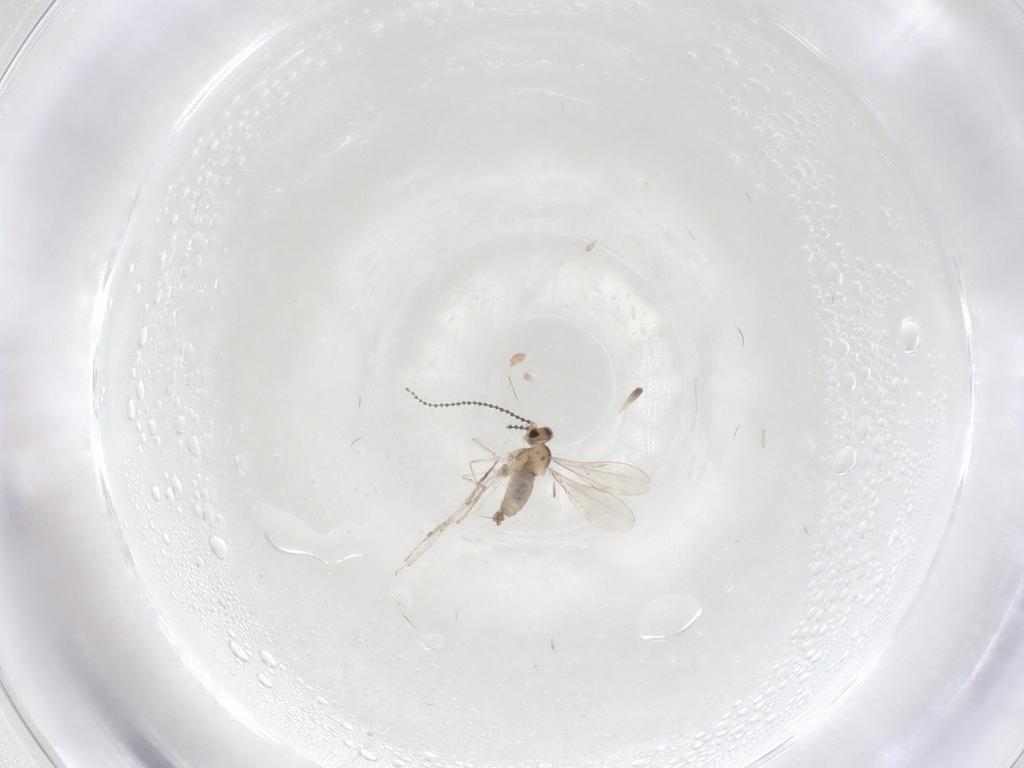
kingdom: Animalia
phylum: Arthropoda
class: Insecta
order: Diptera
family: Cecidomyiidae
